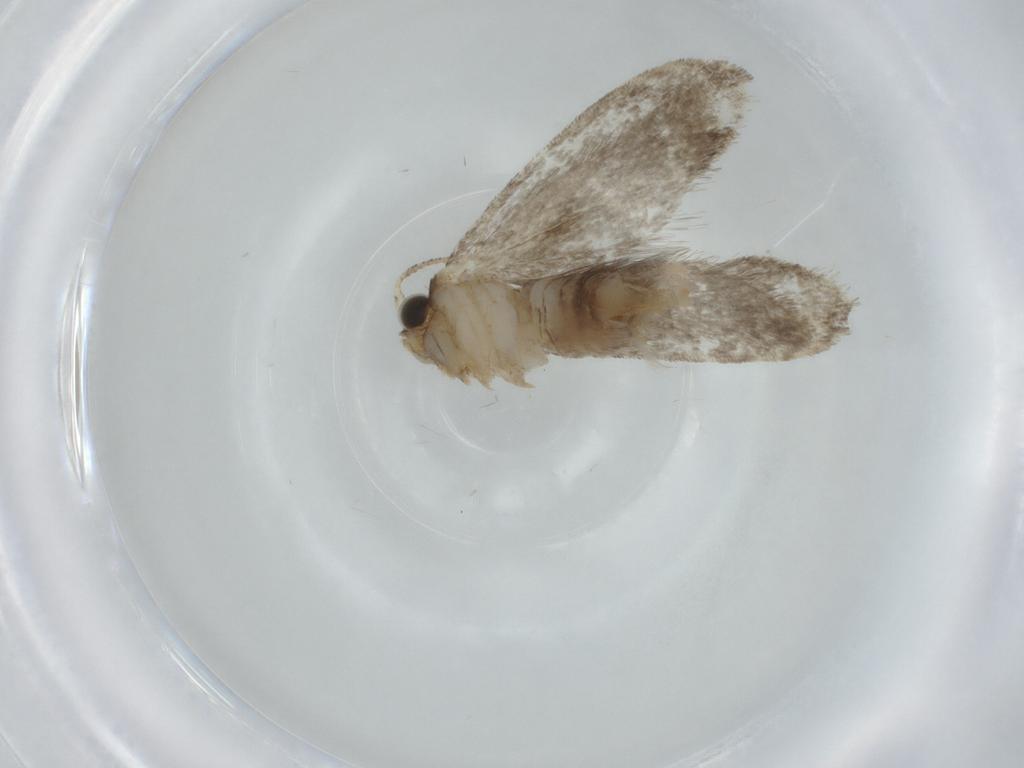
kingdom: Animalia
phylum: Arthropoda
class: Insecta
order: Lepidoptera
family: Tineidae
